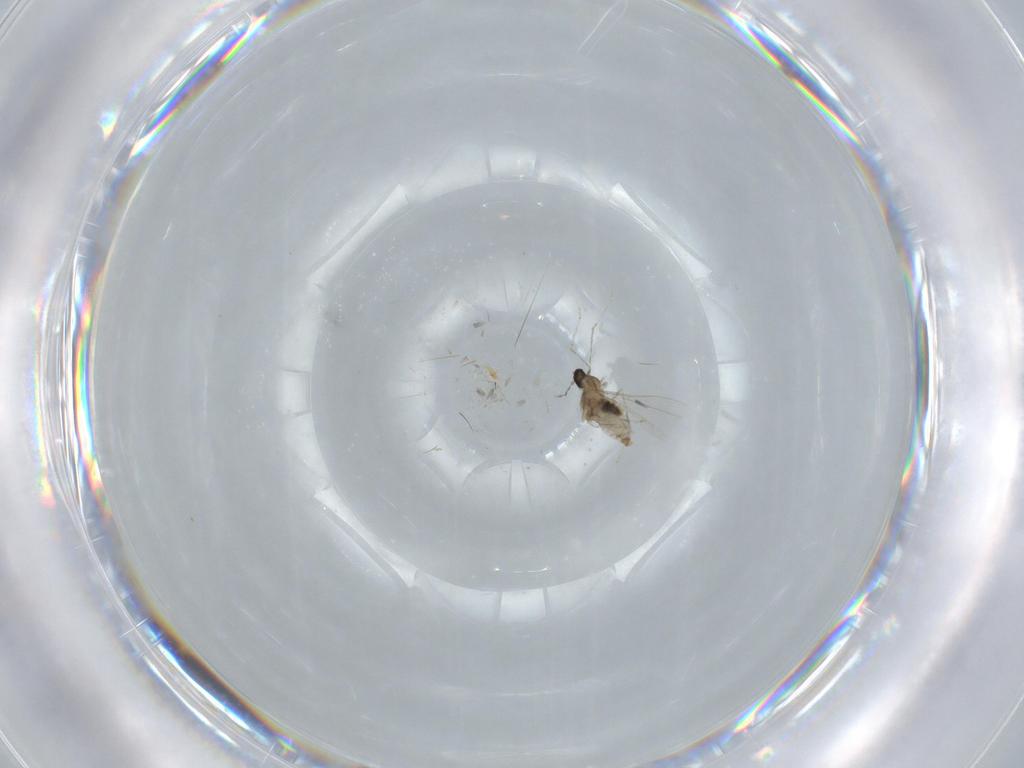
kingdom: Animalia
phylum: Arthropoda
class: Insecta
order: Diptera
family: Cecidomyiidae
